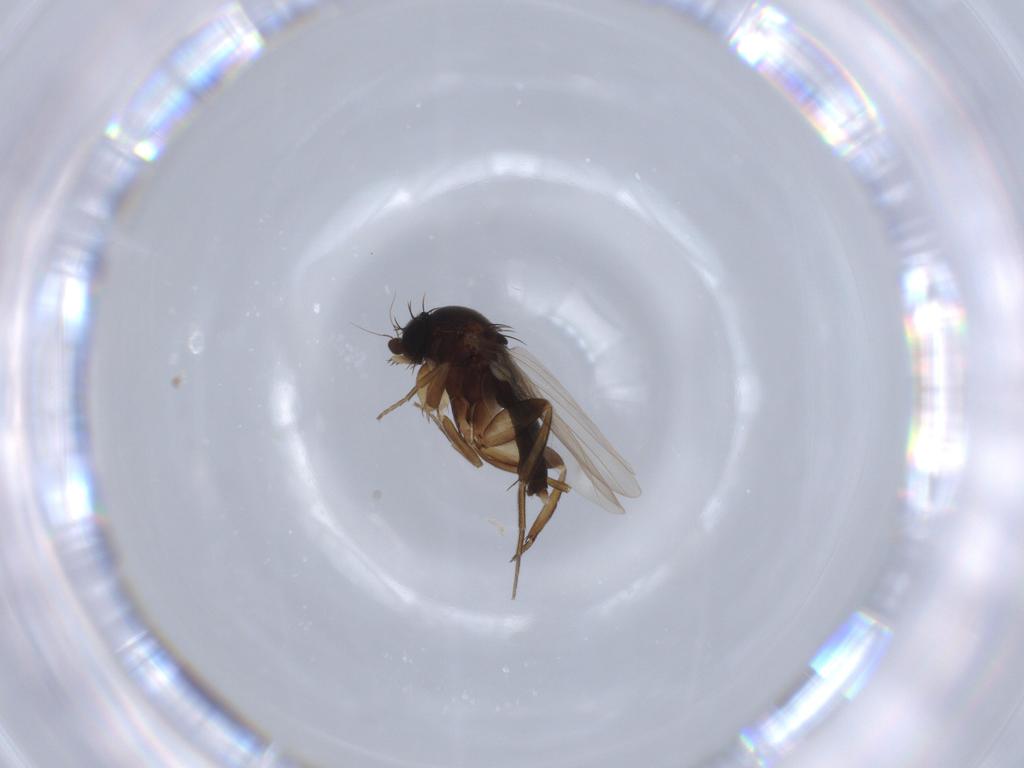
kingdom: Animalia
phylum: Arthropoda
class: Insecta
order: Diptera
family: Phoridae
